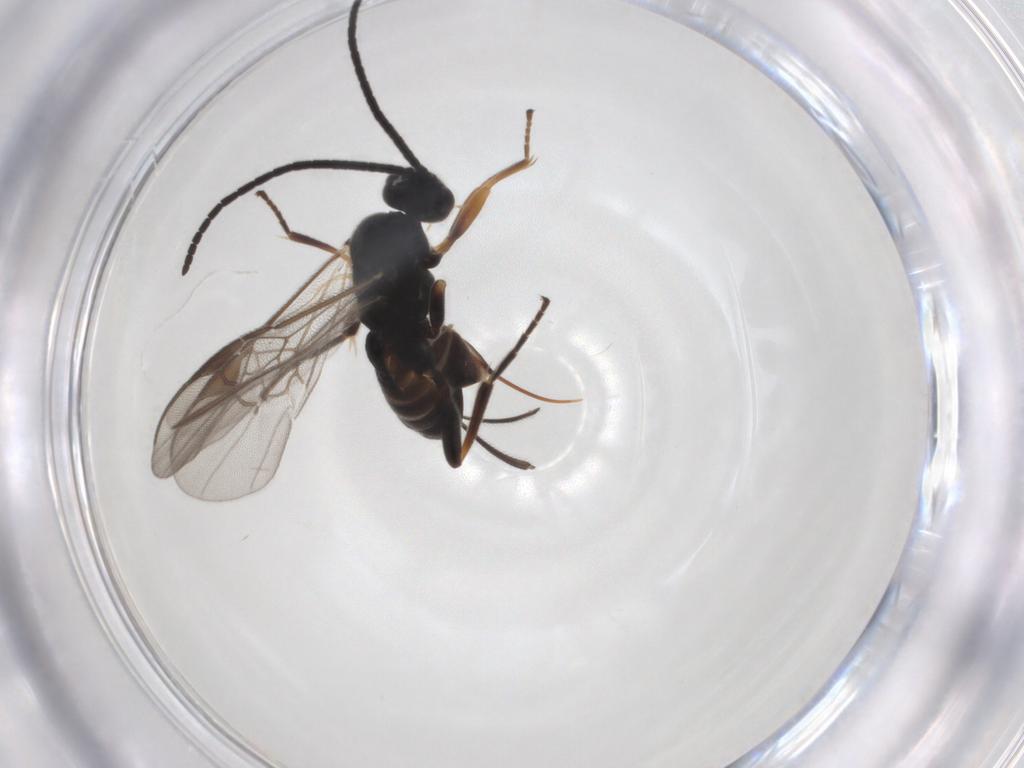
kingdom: Animalia
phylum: Arthropoda
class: Insecta
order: Hymenoptera
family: Braconidae
